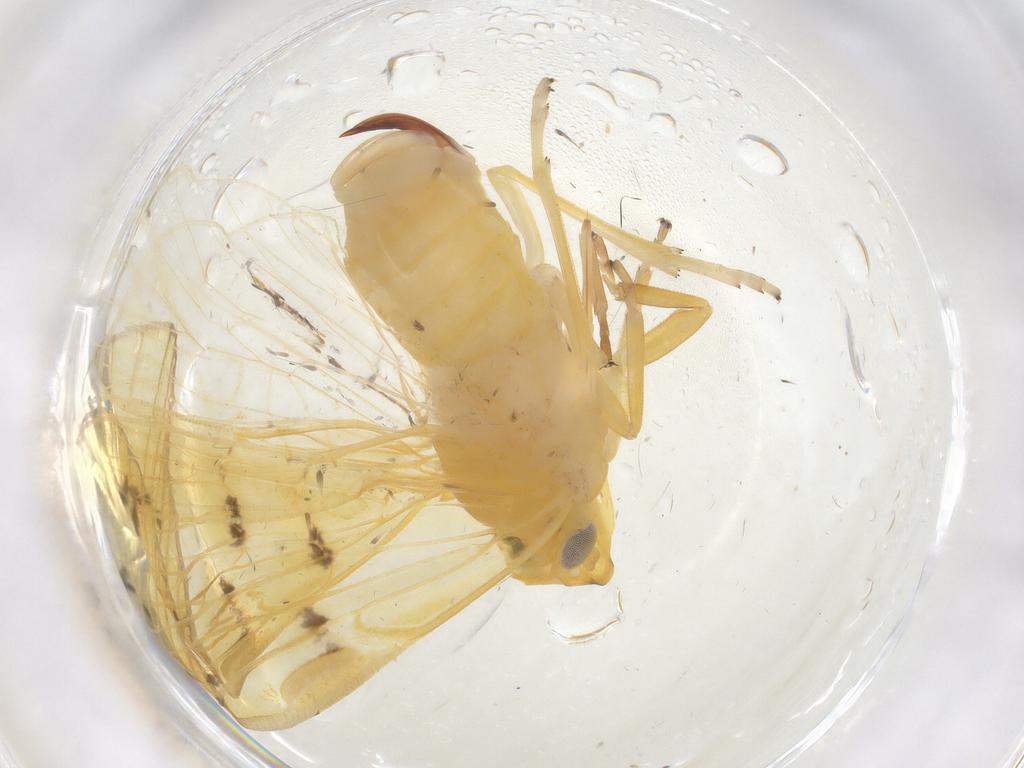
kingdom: Animalia
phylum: Arthropoda
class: Insecta
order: Hemiptera
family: Cixiidae
